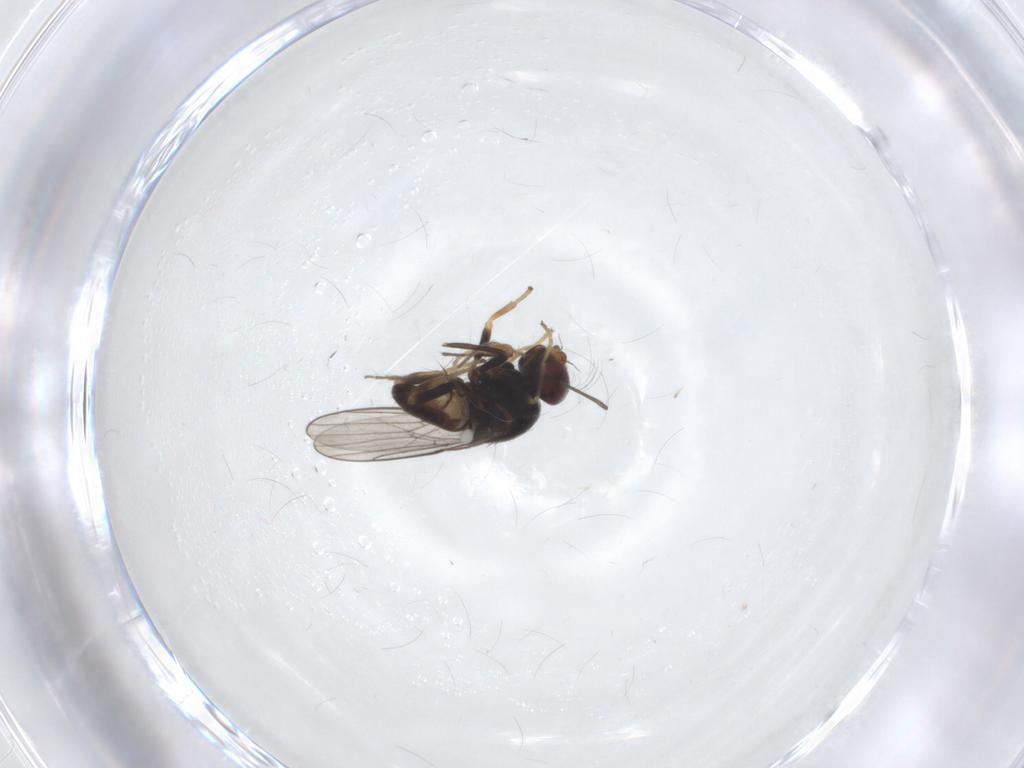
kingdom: Animalia
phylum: Arthropoda
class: Insecta
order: Diptera
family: Chloropidae
